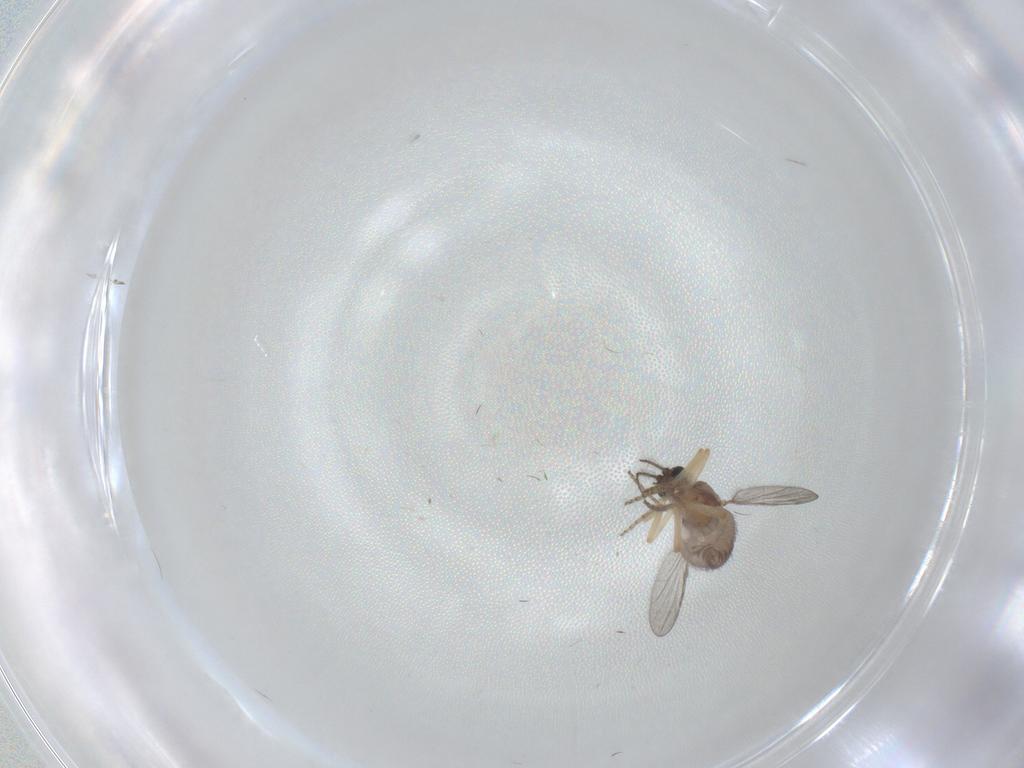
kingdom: Animalia
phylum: Arthropoda
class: Insecta
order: Diptera
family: Ceratopogonidae
